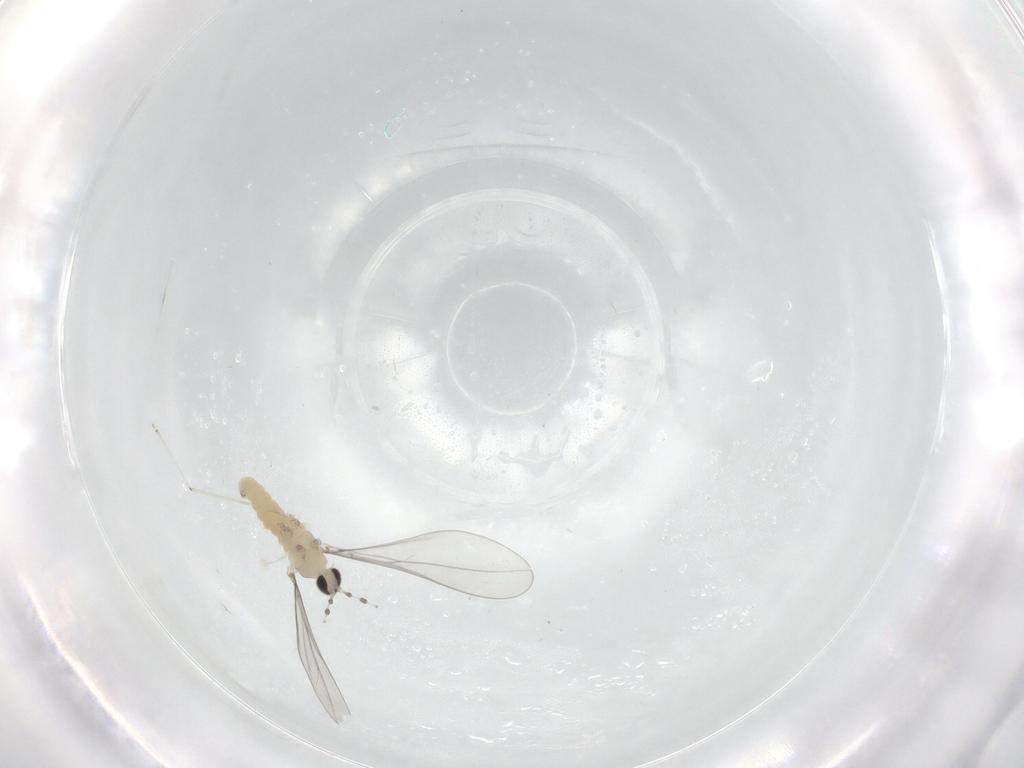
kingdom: Animalia
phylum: Arthropoda
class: Insecta
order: Diptera
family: Cecidomyiidae
